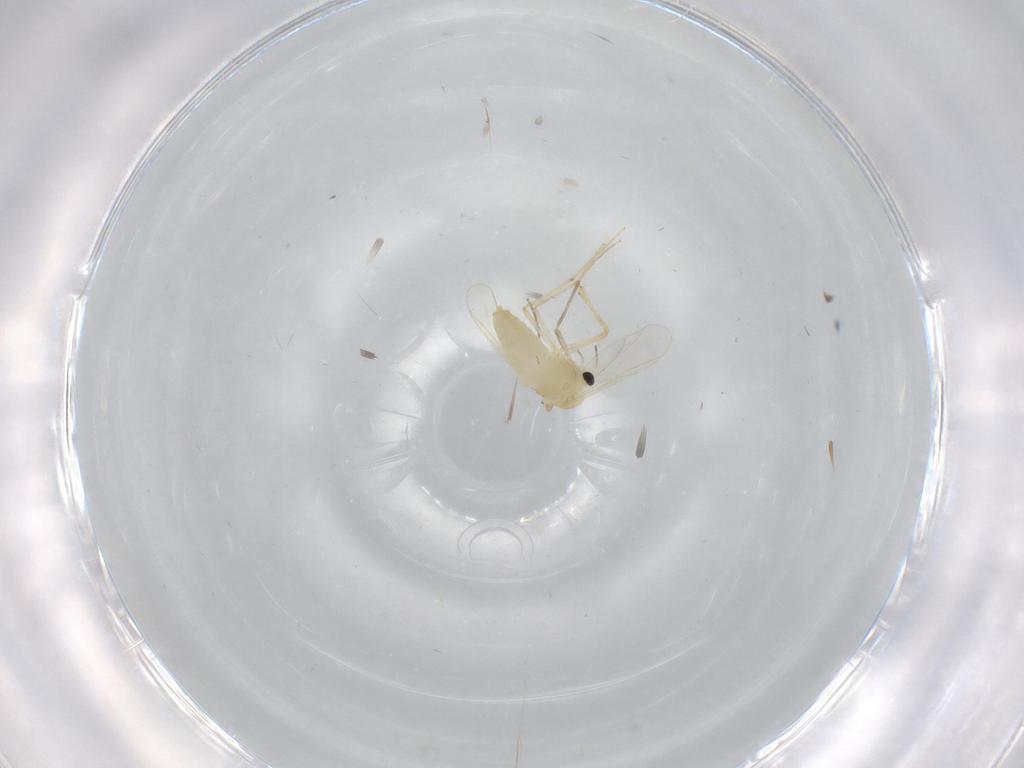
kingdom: Animalia
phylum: Arthropoda
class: Insecta
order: Diptera
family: Chironomidae
